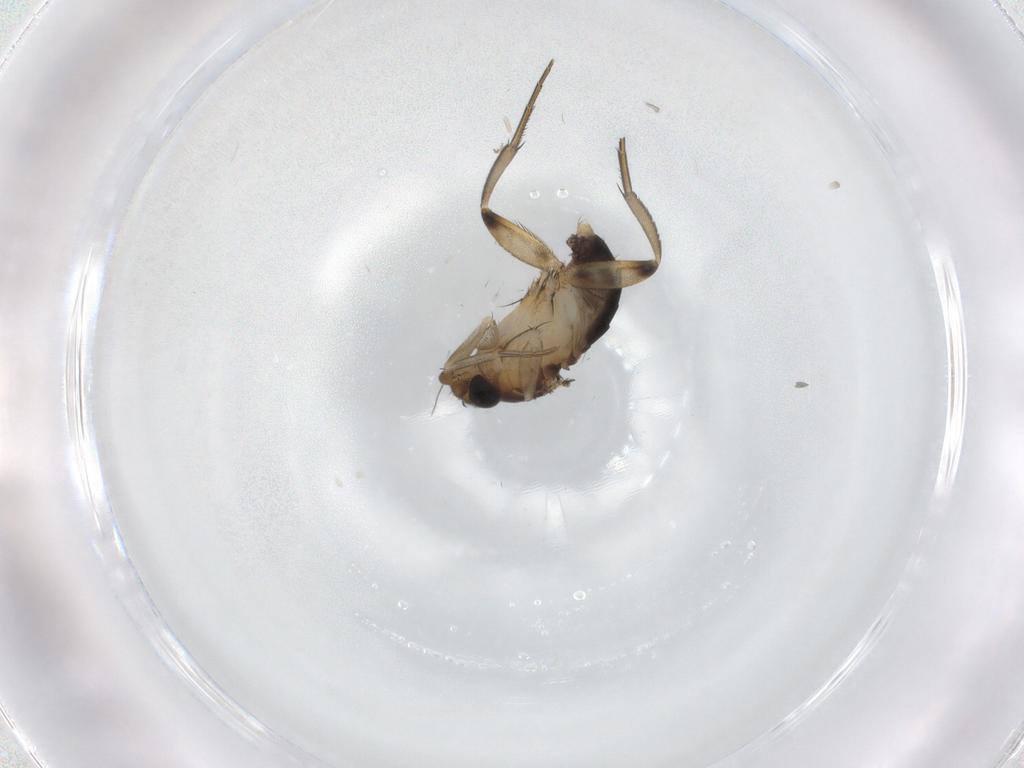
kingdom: Animalia
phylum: Arthropoda
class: Insecta
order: Diptera
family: Phoridae
